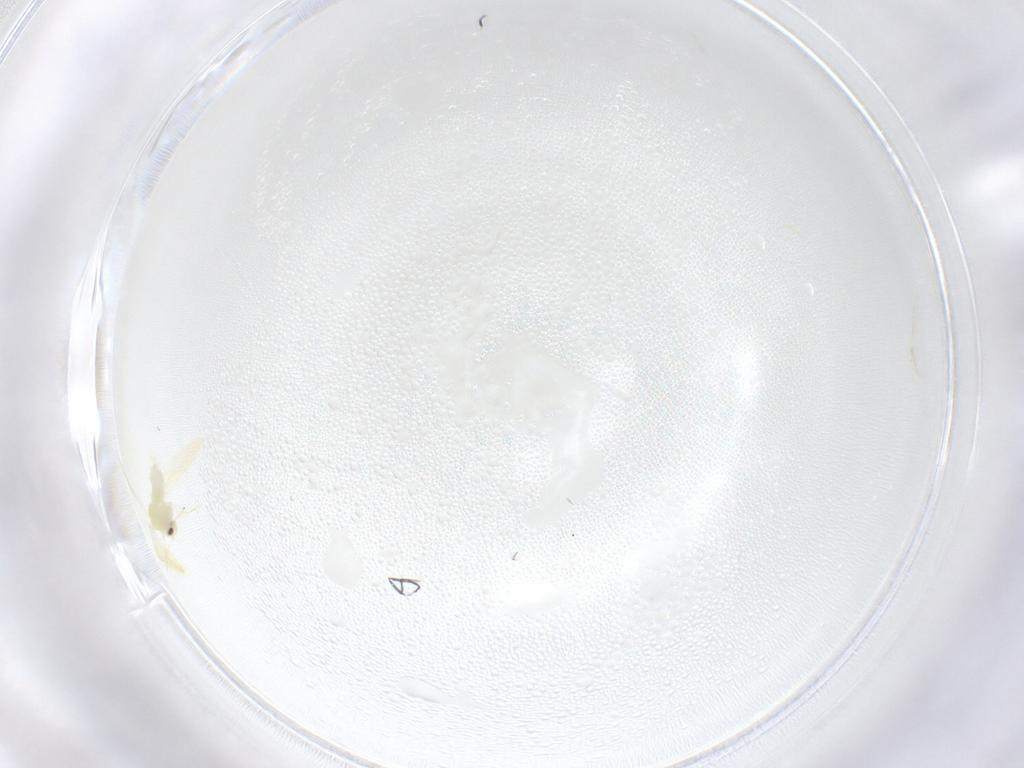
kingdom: Animalia
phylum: Arthropoda
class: Insecta
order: Hemiptera
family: Aleyrodidae
